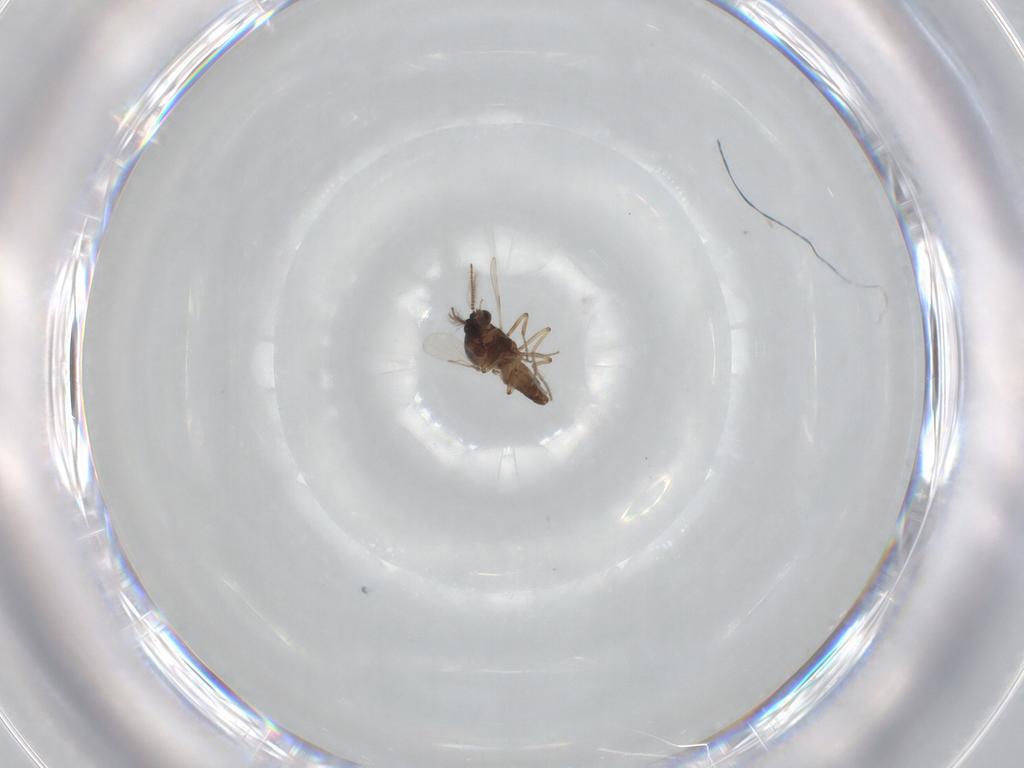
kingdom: Animalia
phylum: Arthropoda
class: Insecta
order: Diptera
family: Ceratopogonidae
